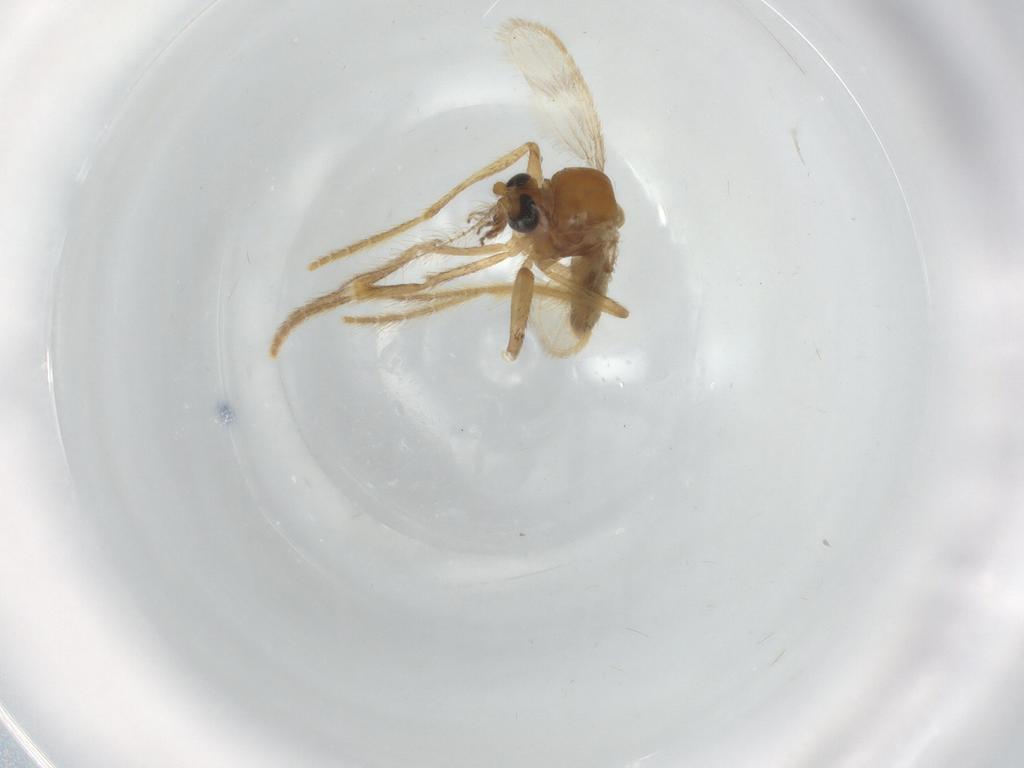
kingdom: Animalia
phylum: Arthropoda
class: Insecta
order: Diptera
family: Corethrellidae
